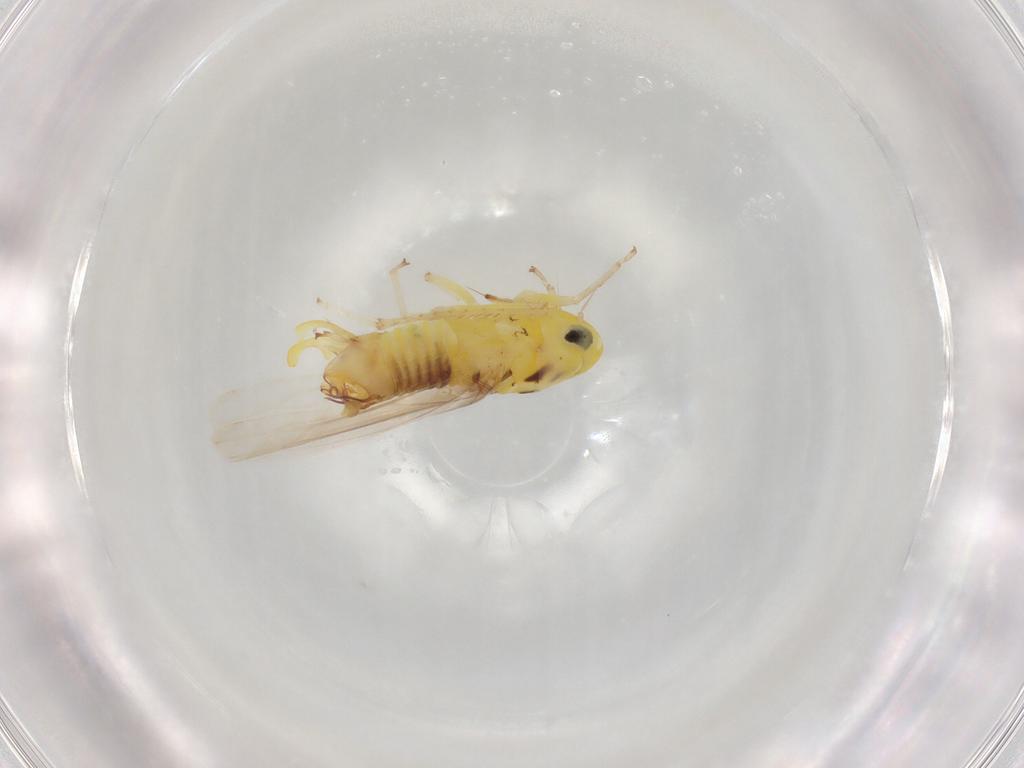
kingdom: Animalia
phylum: Arthropoda
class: Insecta
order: Hemiptera
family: Cicadellidae
